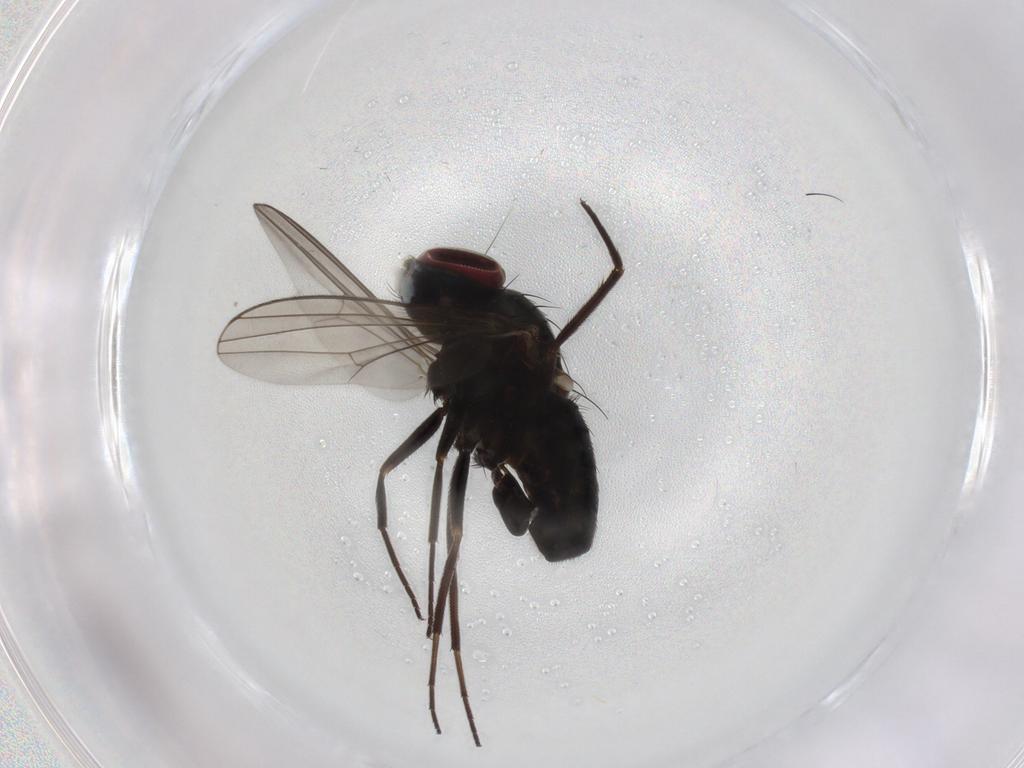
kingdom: Animalia
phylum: Arthropoda
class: Insecta
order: Diptera
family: Dolichopodidae
